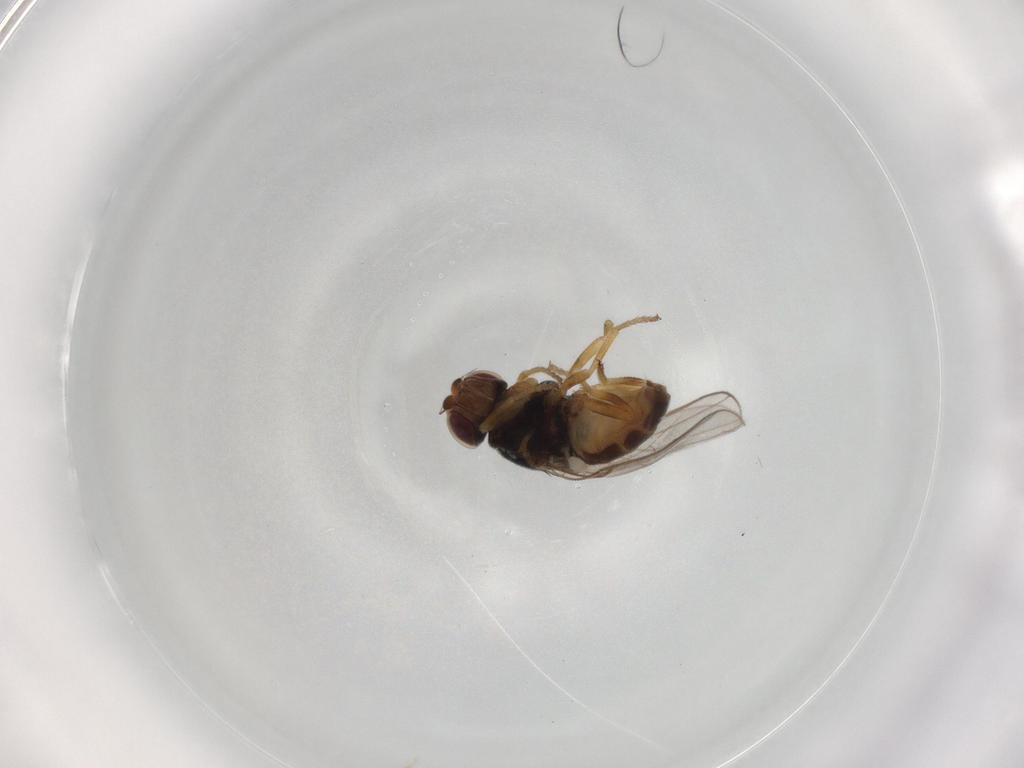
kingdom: Animalia
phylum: Arthropoda
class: Insecta
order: Diptera
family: Chloropidae
